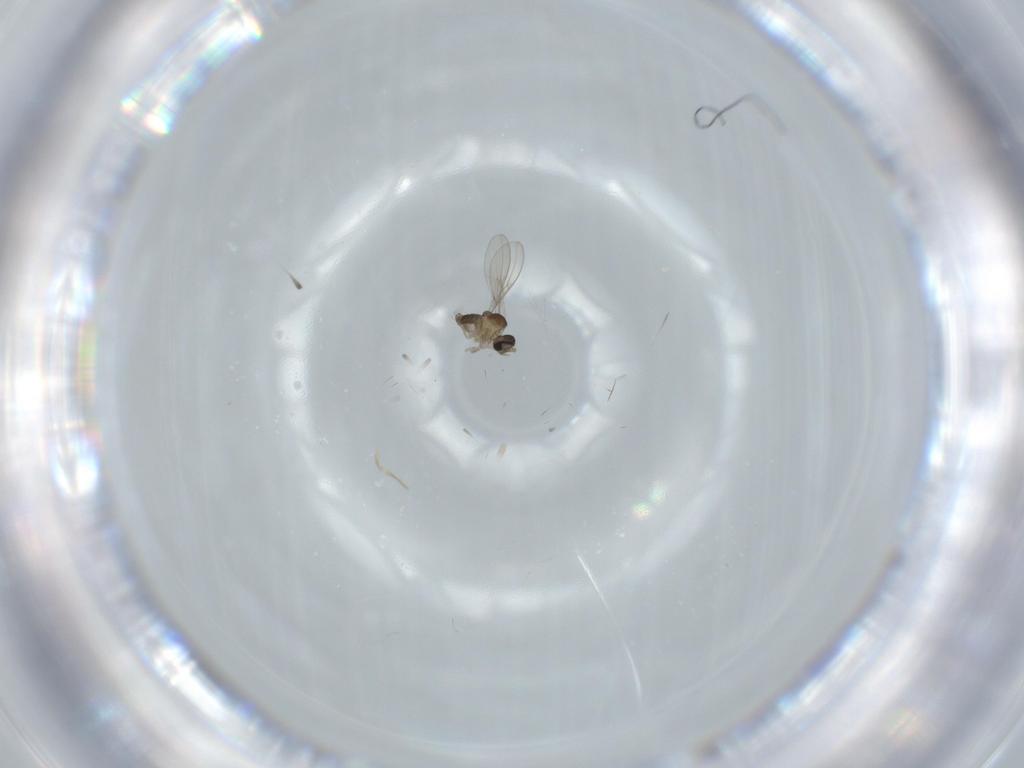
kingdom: Animalia
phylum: Arthropoda
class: Insecta
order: Diptera
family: Cecidomyiidae
